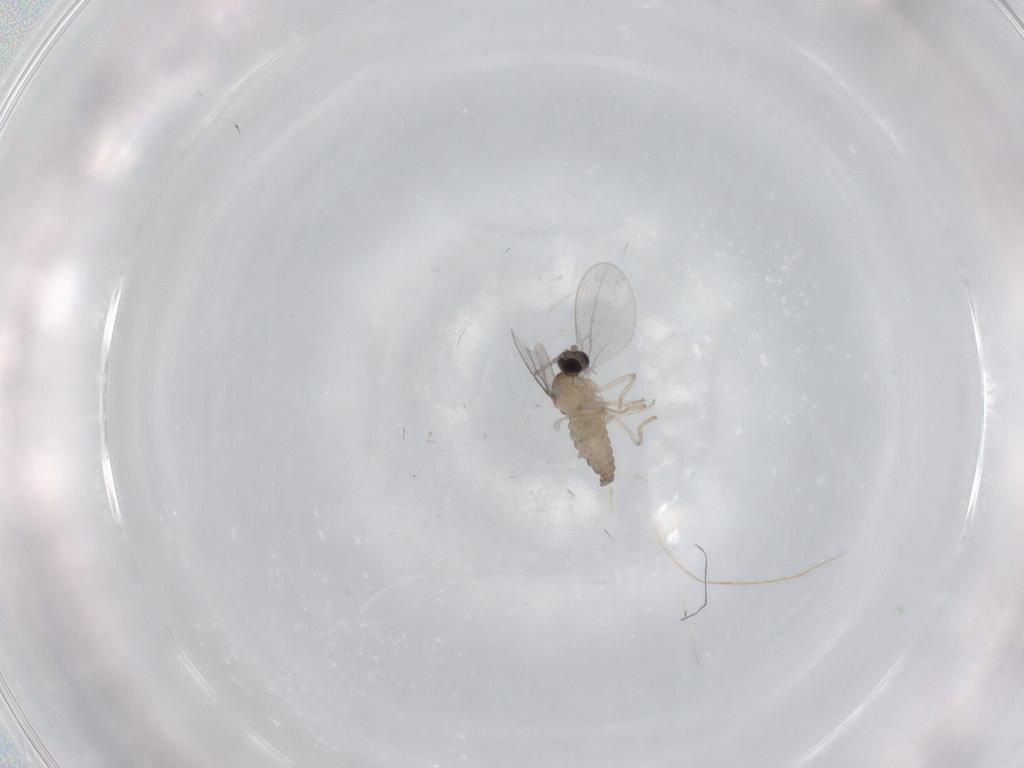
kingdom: Animalia
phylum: Arthropoda
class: Insecta
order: Diptera
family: Cecidomyiidae
